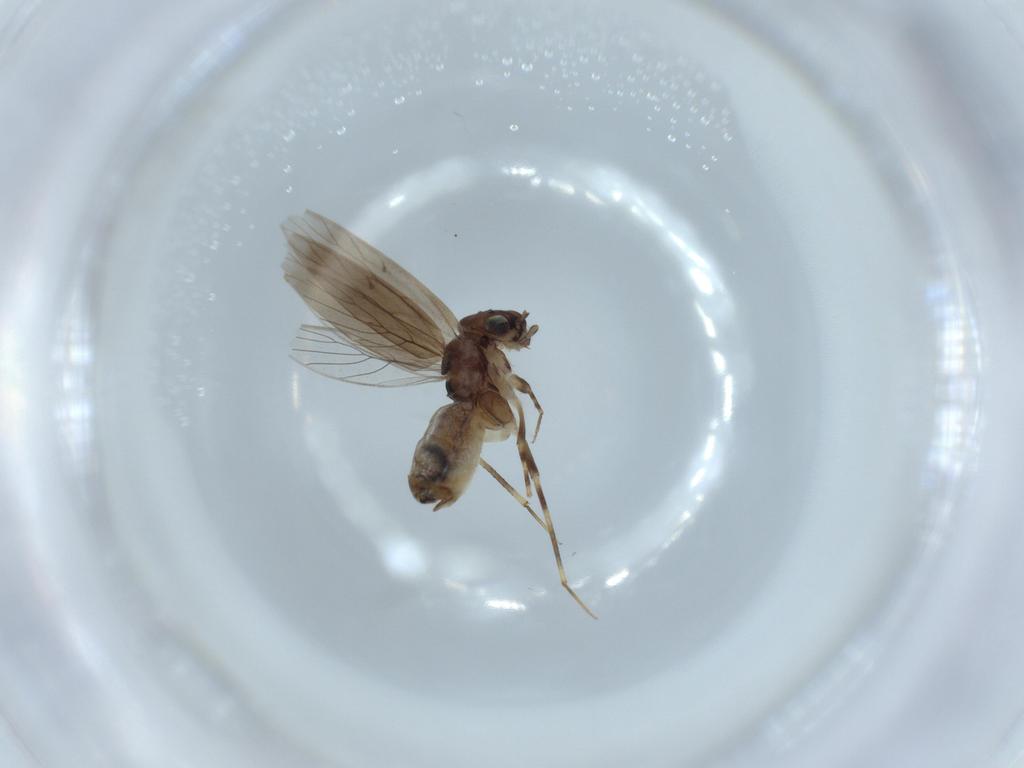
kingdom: Animalia
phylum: Arthropoda
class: Insecta
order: Psocodea
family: Lepidopsocidae
